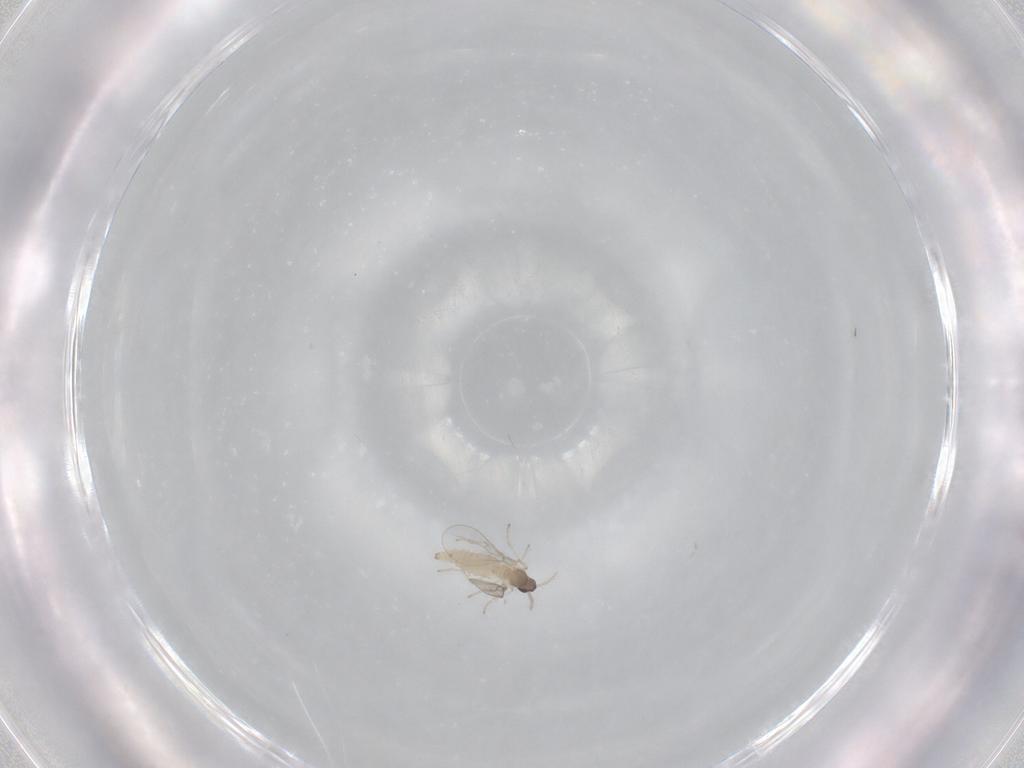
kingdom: Animalia
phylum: Arthropoda
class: Insecta
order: Diptera
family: Cecidomyiidae
